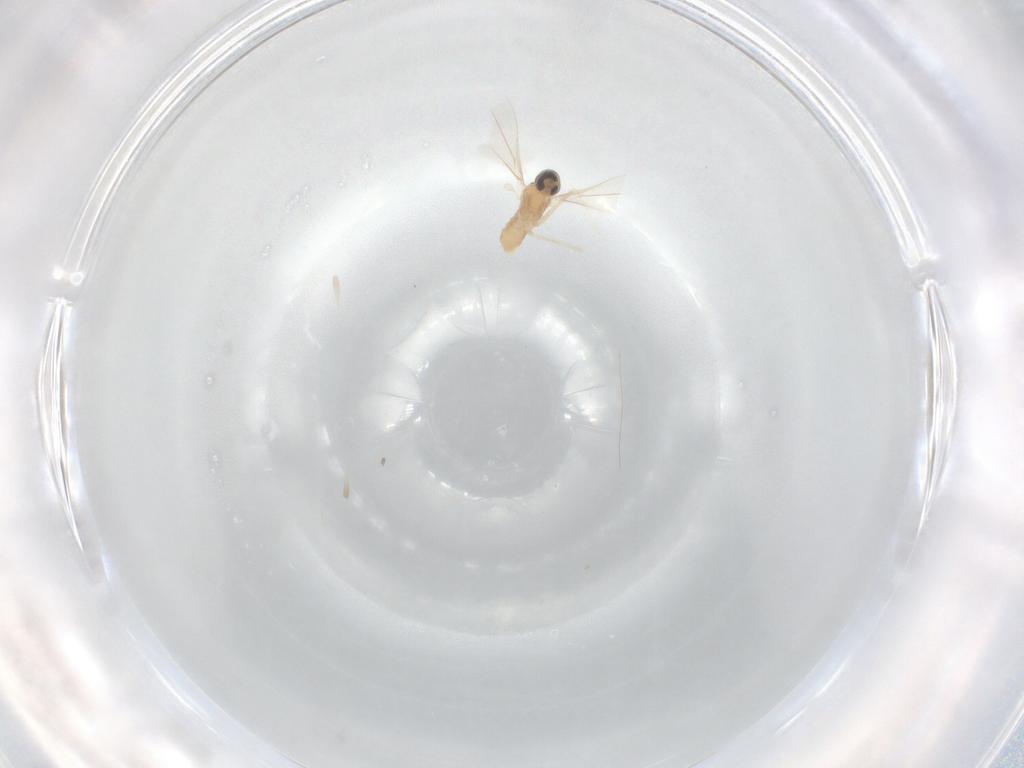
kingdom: Animalia
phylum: Arthropoda
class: Insecta
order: Diptera
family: Cecidomyiidae
